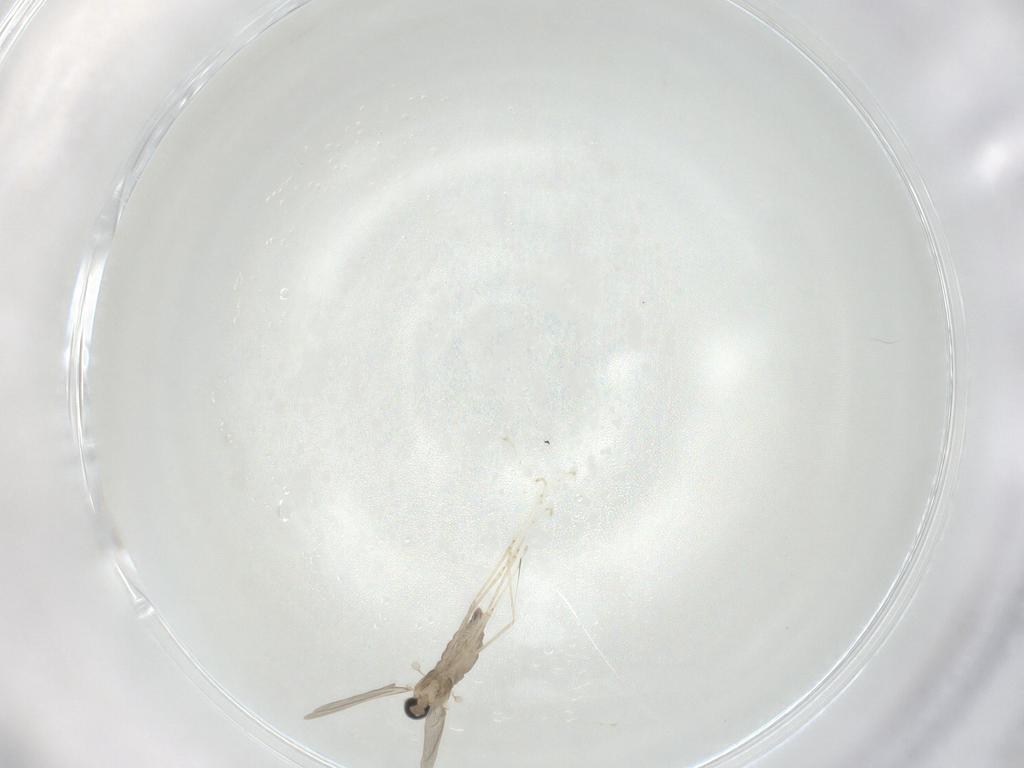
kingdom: Animalia
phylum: Arthropoda
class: Insecta
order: Diptera
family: Cecidomyiidae
